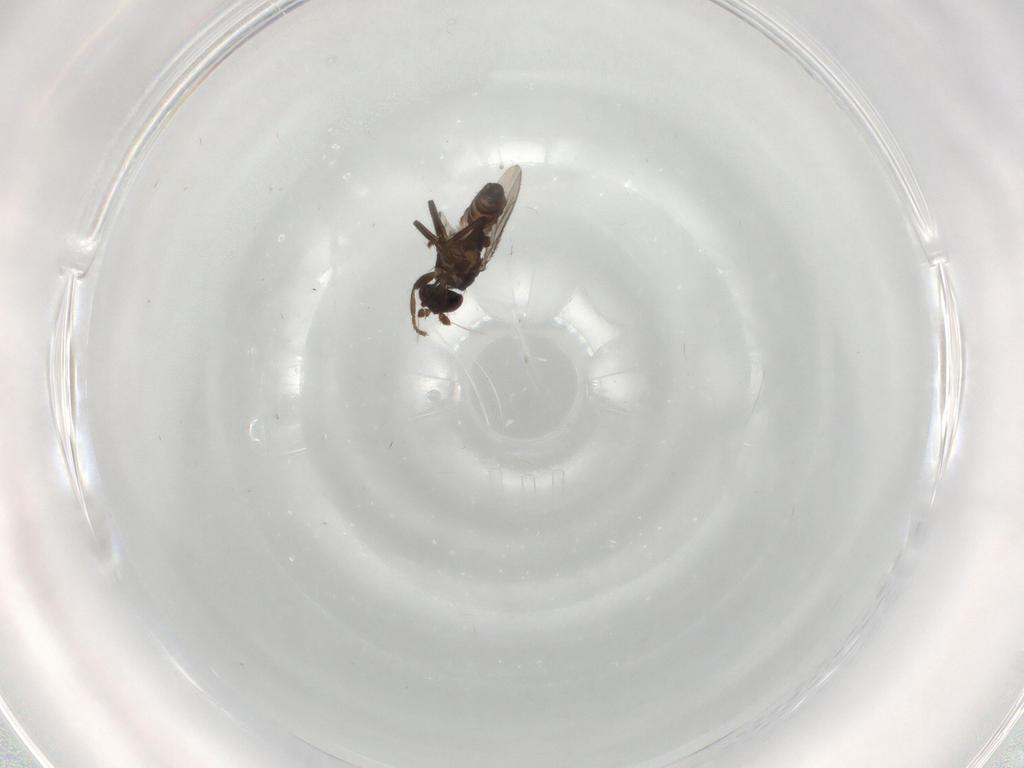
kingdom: Animalia
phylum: Arthropoda
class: Insecta
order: Diptera
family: Sphaeroceridae
